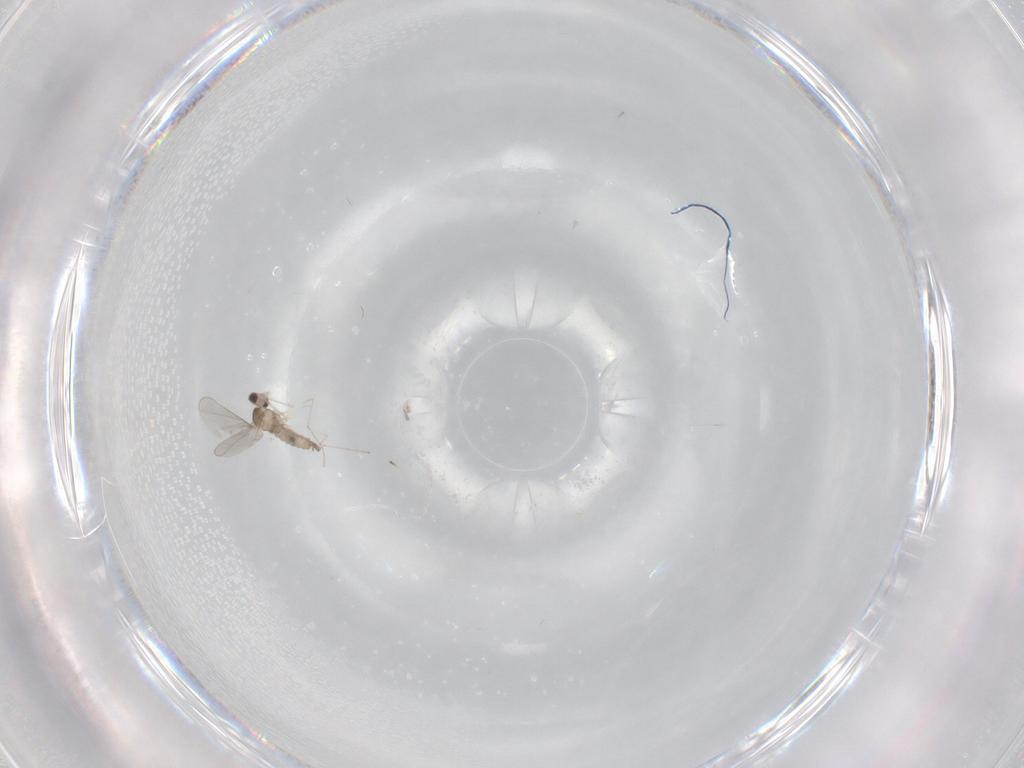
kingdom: Animalia
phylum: Arthropoda
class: Insecta
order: Diptera
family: Cecidomyiidae
